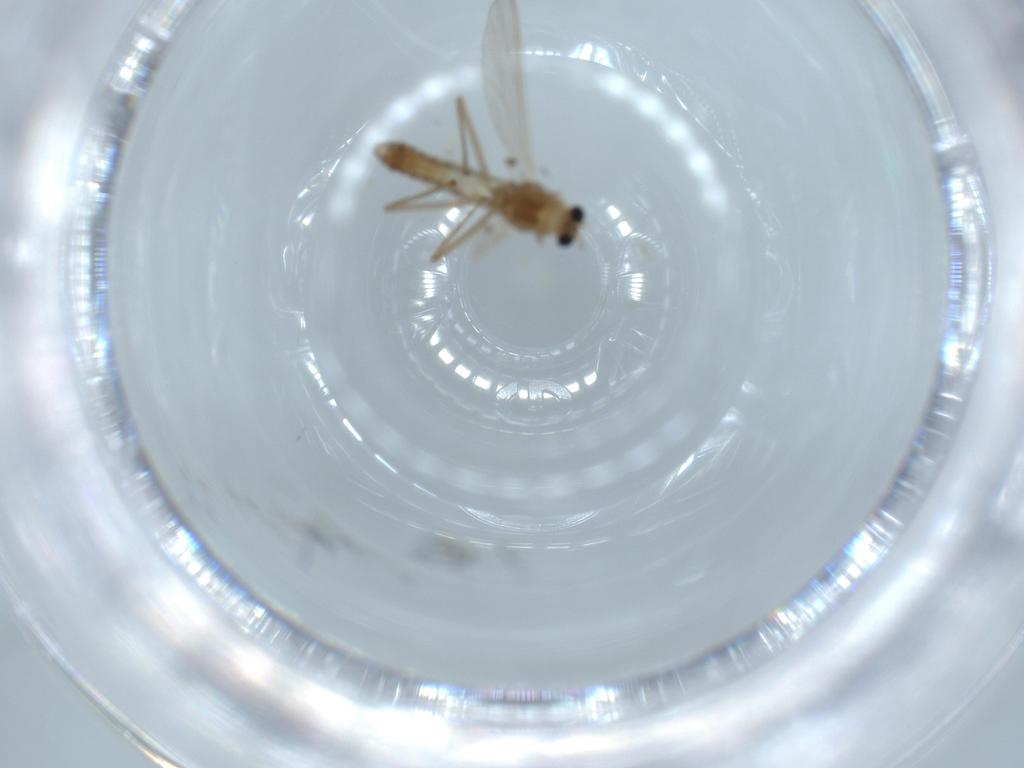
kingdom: Animalia
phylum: Arthropoda
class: Insecta
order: Diptera
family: Chironomidae
